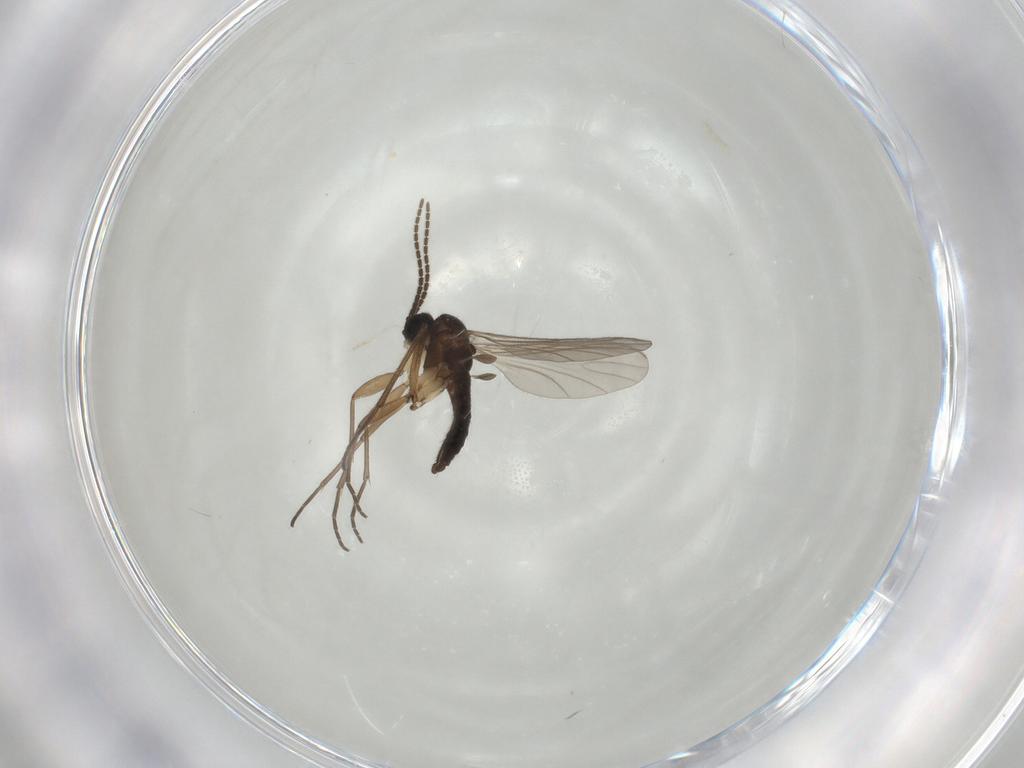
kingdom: Animalia
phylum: Arthropoda
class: Insecta
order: Diptera
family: Sciaridae
